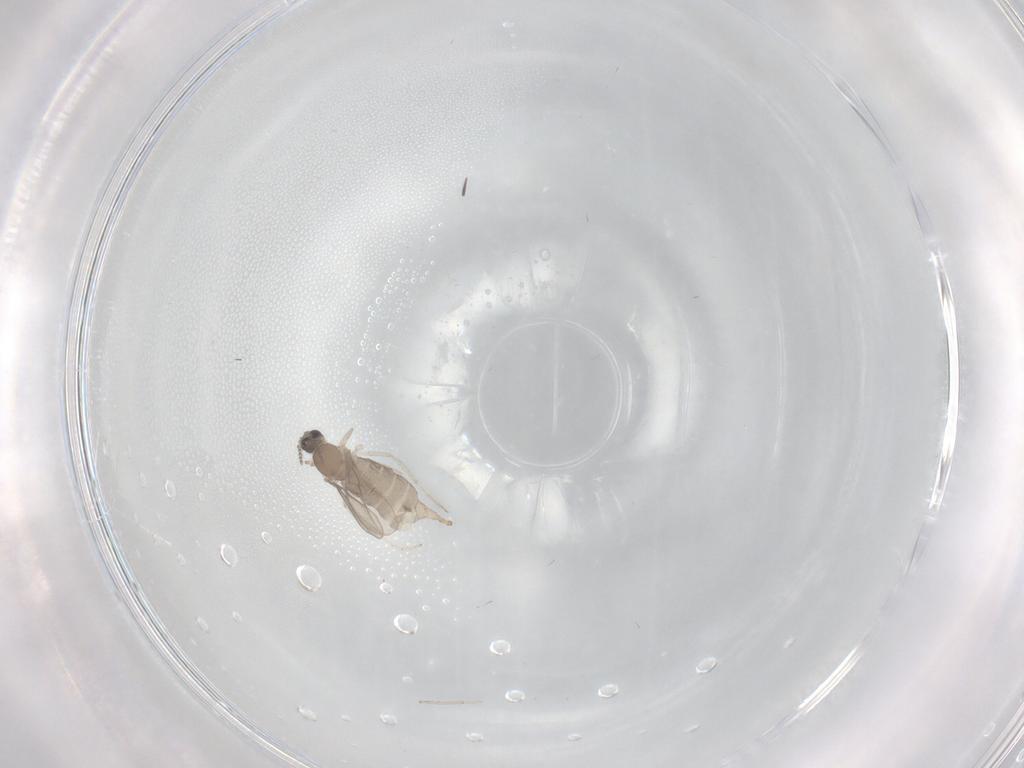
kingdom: Animalia
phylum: Arthropoda
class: Insecta
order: Diptera
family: Cecidomyiidae
